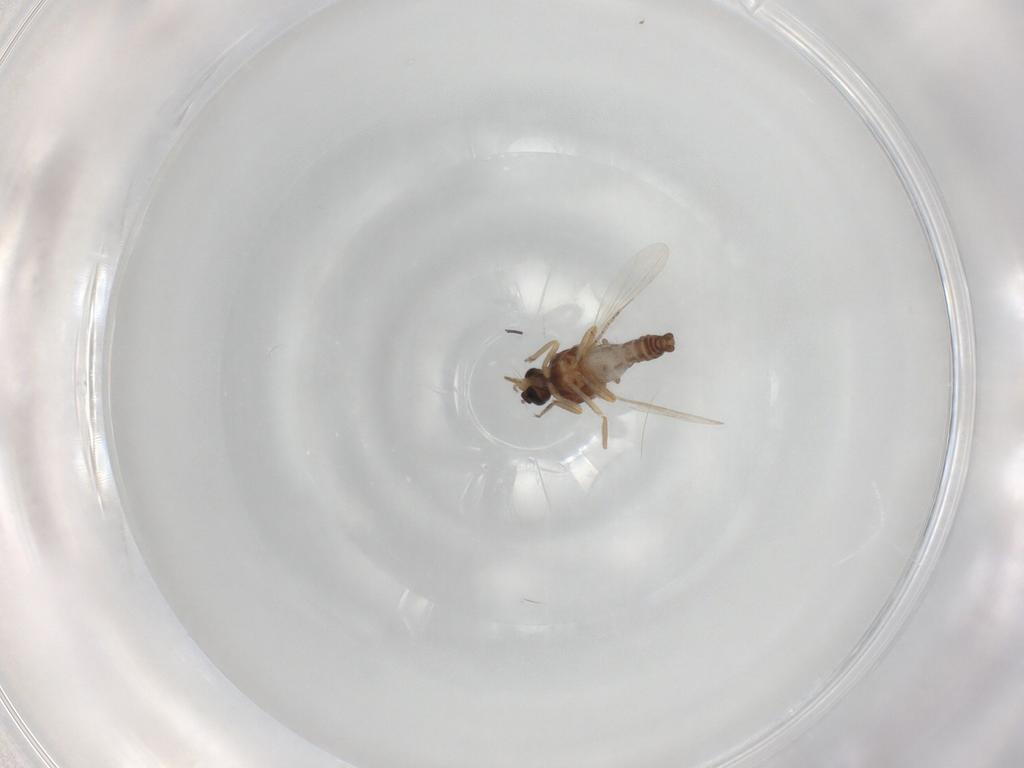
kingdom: Animalia
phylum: Arthropoda
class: Insecta
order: Diptera
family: Ceratopogonidae
